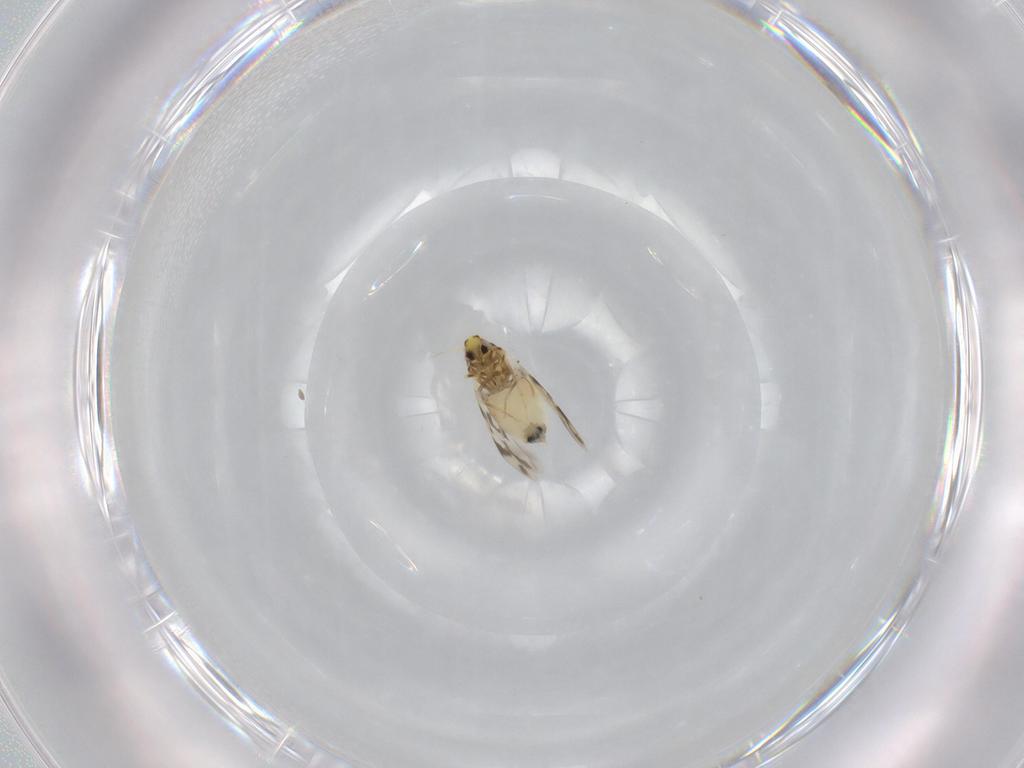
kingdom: Animalia
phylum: Arthropoda
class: Insecta
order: Hemiptera
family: Aleyrodidae
